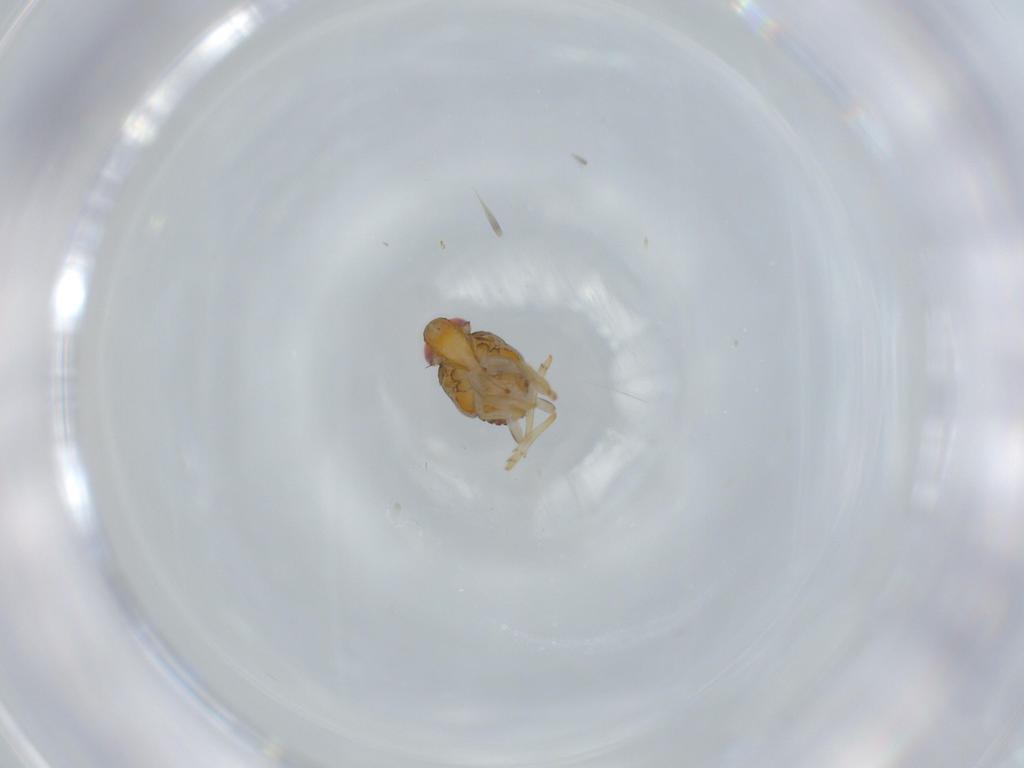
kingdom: Animalia
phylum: Arthropoda
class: Insecta
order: Hemiptera
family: Issidae
